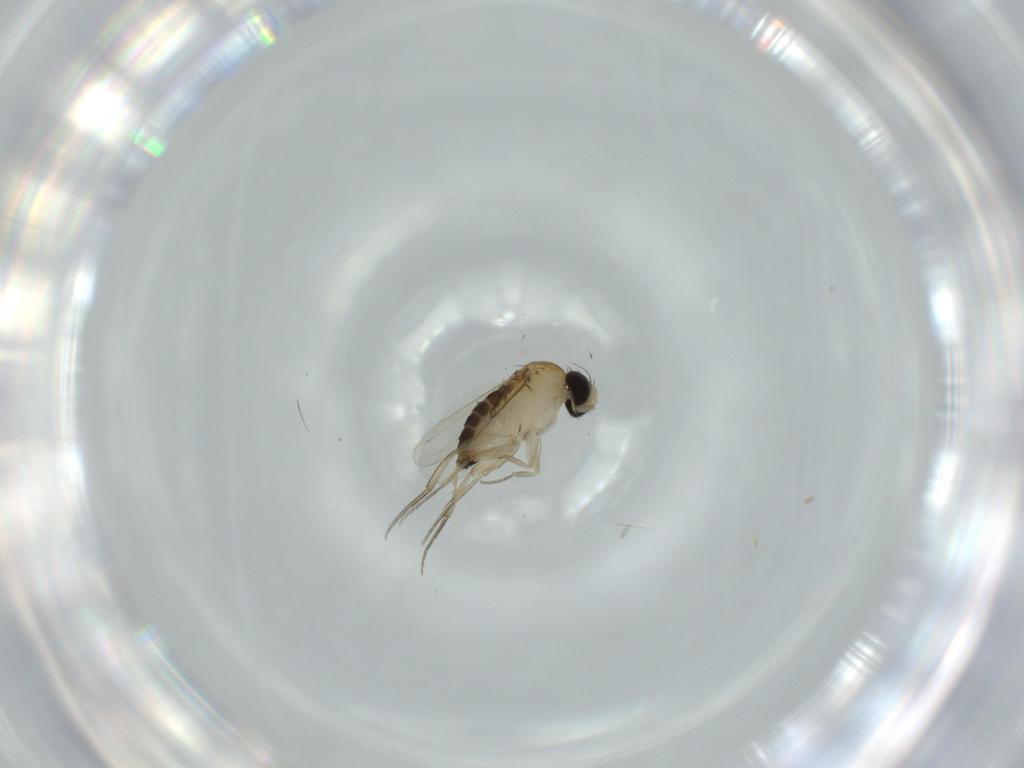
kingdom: Animalia
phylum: Arthropoda
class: Insecta
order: Diptera
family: Phoridae
